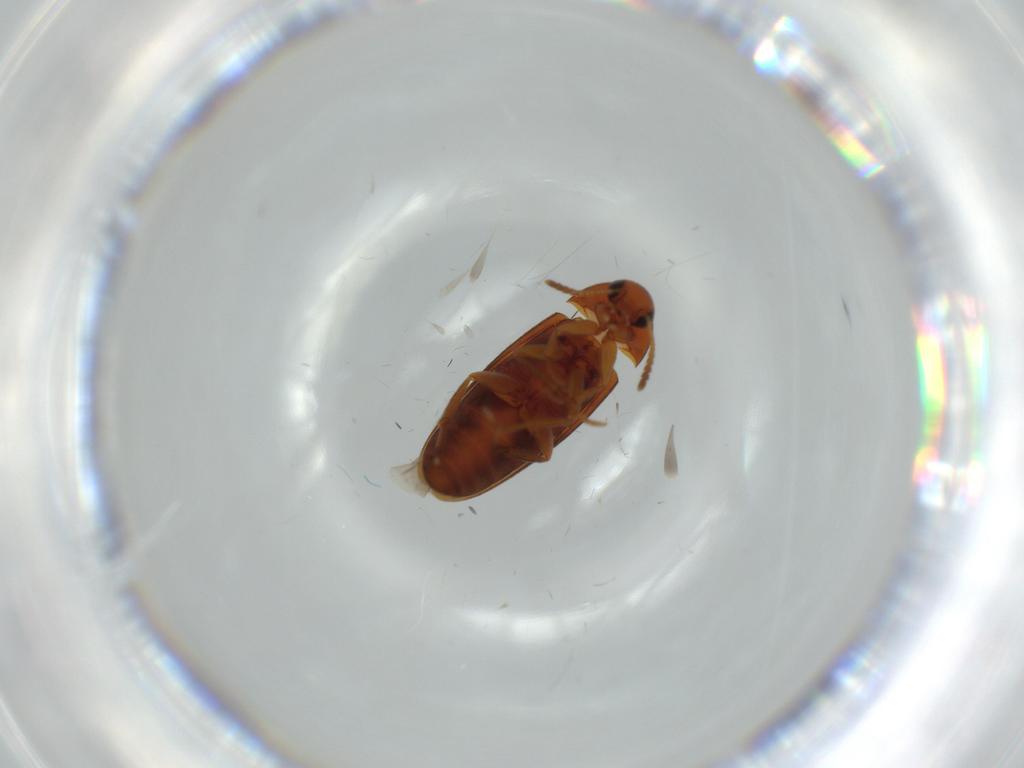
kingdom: Animalia
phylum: Arthropoda
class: Insecta
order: Coleoptera
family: Scraptiidae
